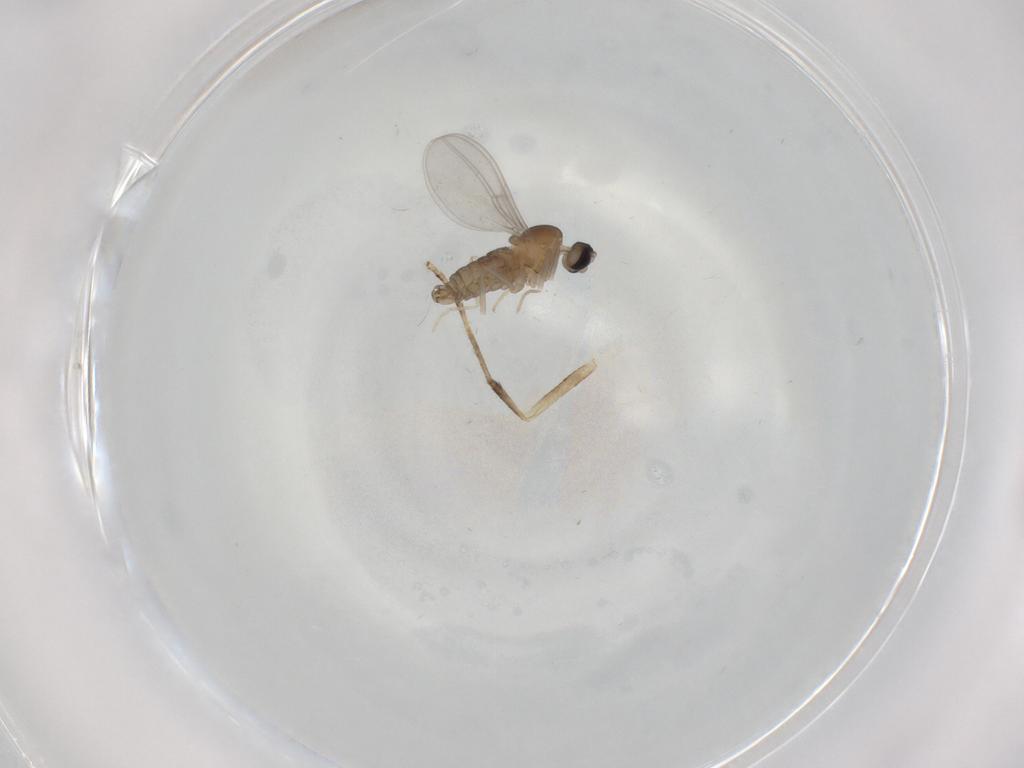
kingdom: Animalia
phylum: Arthropoda
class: Insecta
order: Diptera
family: Cecidomyiidae
